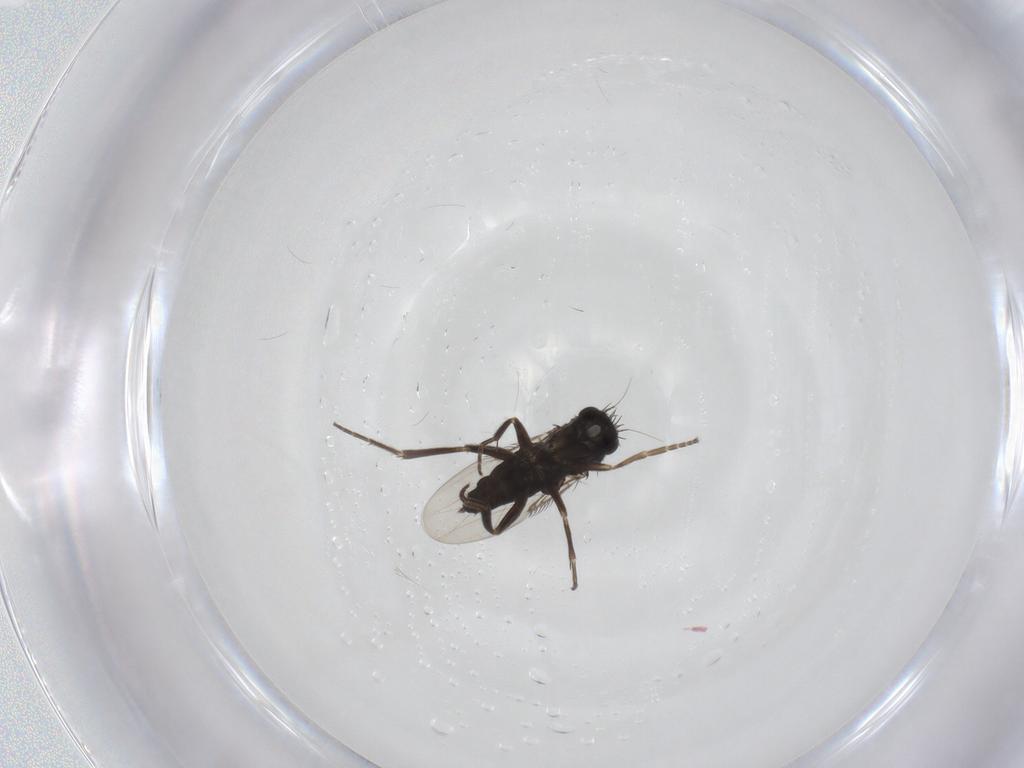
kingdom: Animalia
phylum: Arthropoda
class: Insecta
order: Diptera
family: Phoridae
